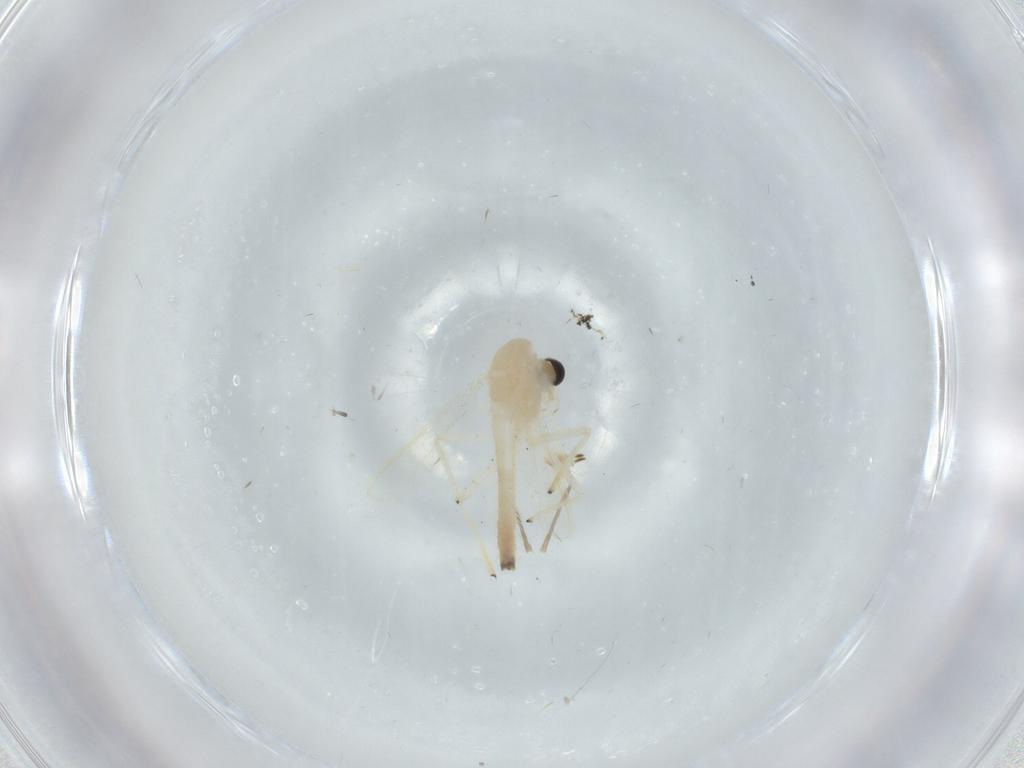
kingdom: Animalia
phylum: Arthropoda
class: Insecta
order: Diptera
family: Chironomidae
